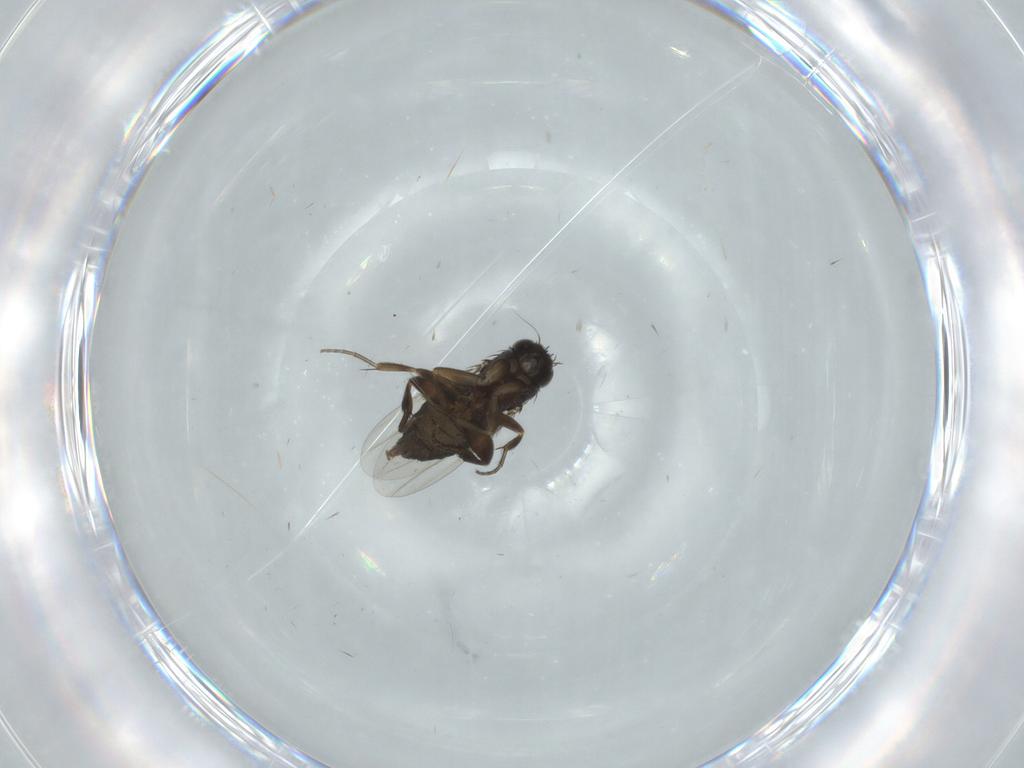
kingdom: Animalia
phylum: Arthropoda
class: Insecta
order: Diptera
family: Phoridae
